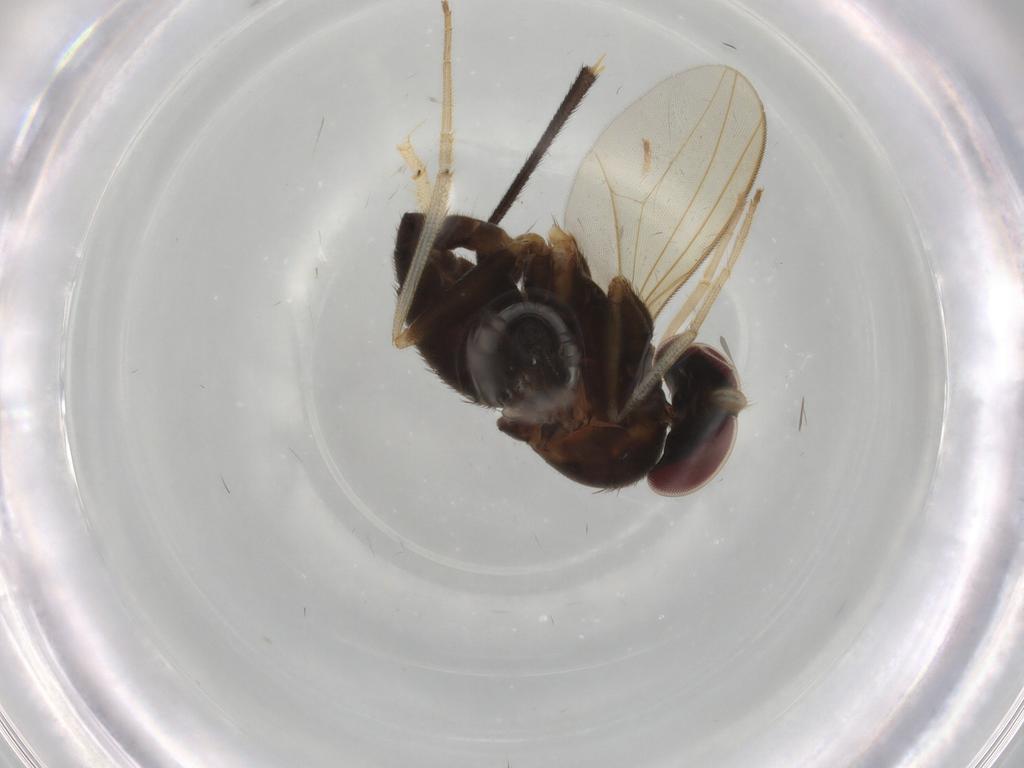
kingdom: Animalia
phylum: Arthropoda
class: Insecta
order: Diptera
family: Dolichopodidae
